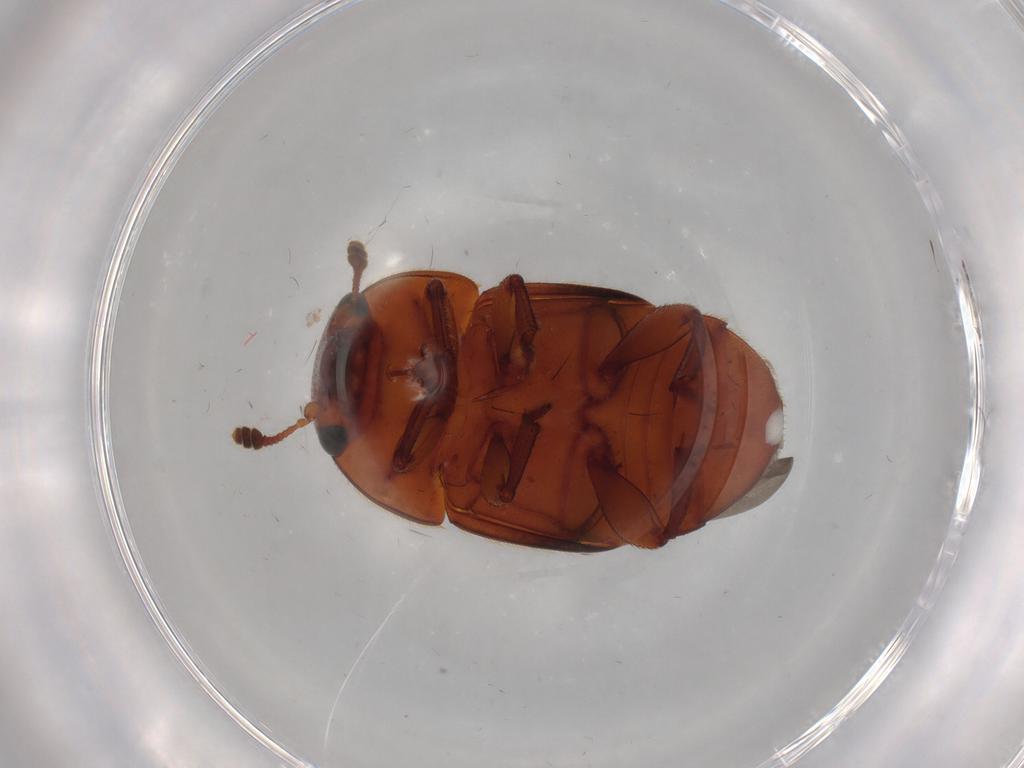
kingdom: Animalia
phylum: Arthropoda
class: Insecta
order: Coleoptera
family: Nitidulidae
